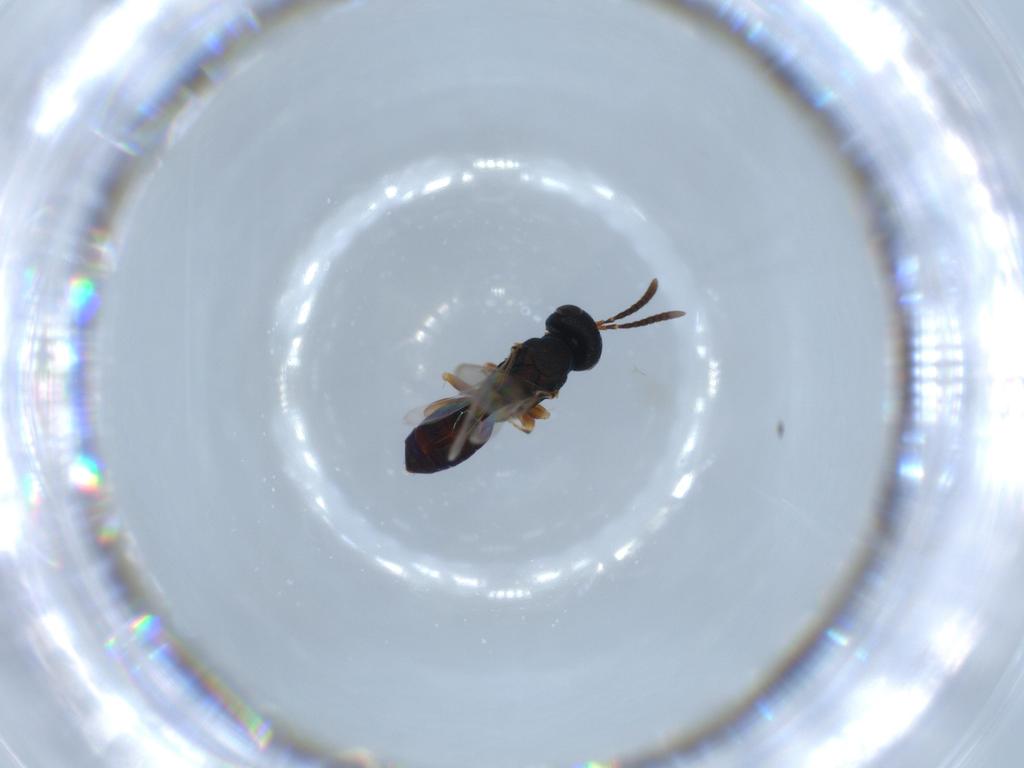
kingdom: Animalia
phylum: Arthropoda
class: Insecta
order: Hymenoptera
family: Pteromalidae
